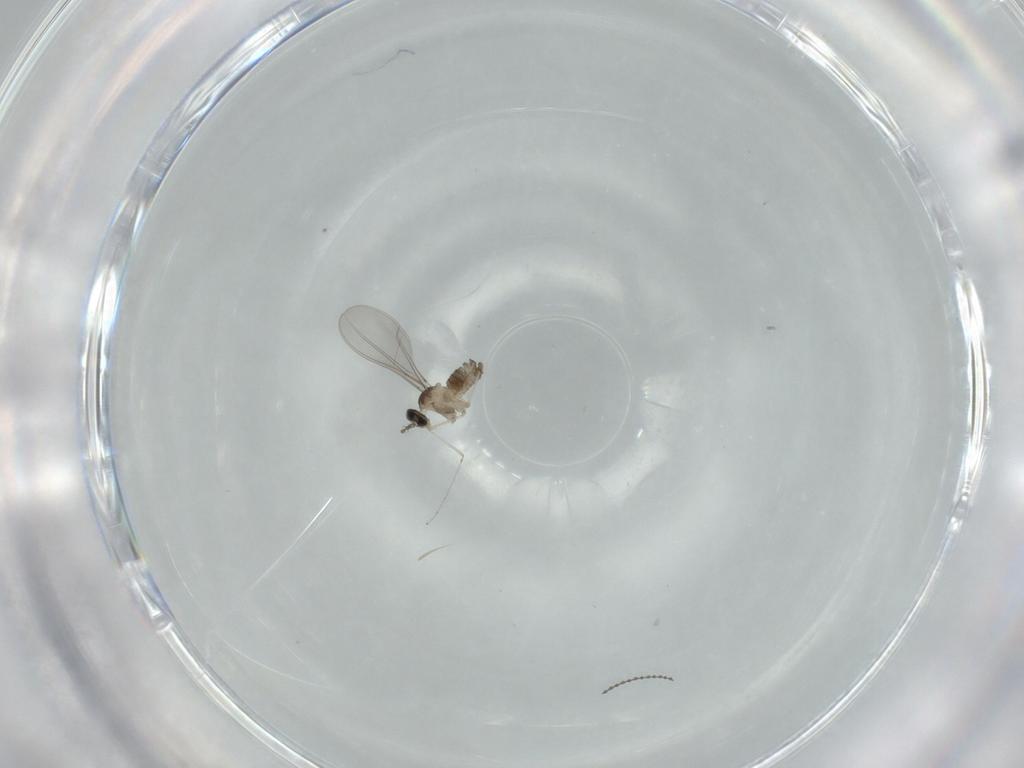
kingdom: Animalia
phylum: Arthropoda
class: Insecta
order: Diptera
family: Cecidomyiidae
